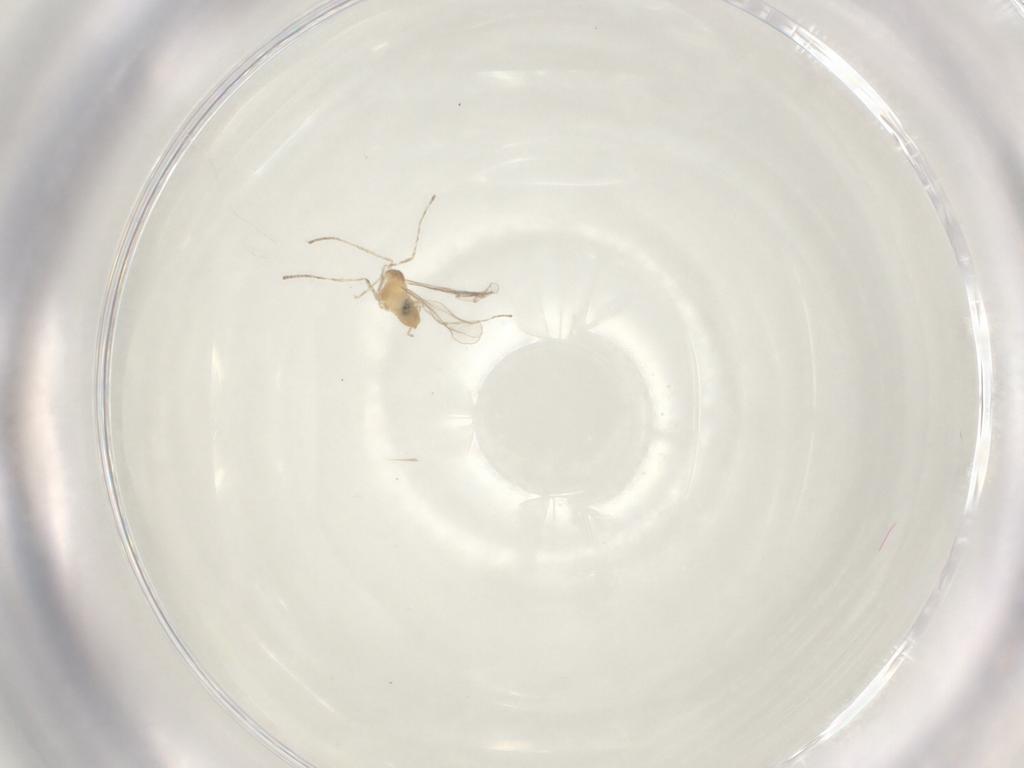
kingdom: Animalia
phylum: Arthropoda
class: Insecta
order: Diptera
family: Cecidomyiidae
